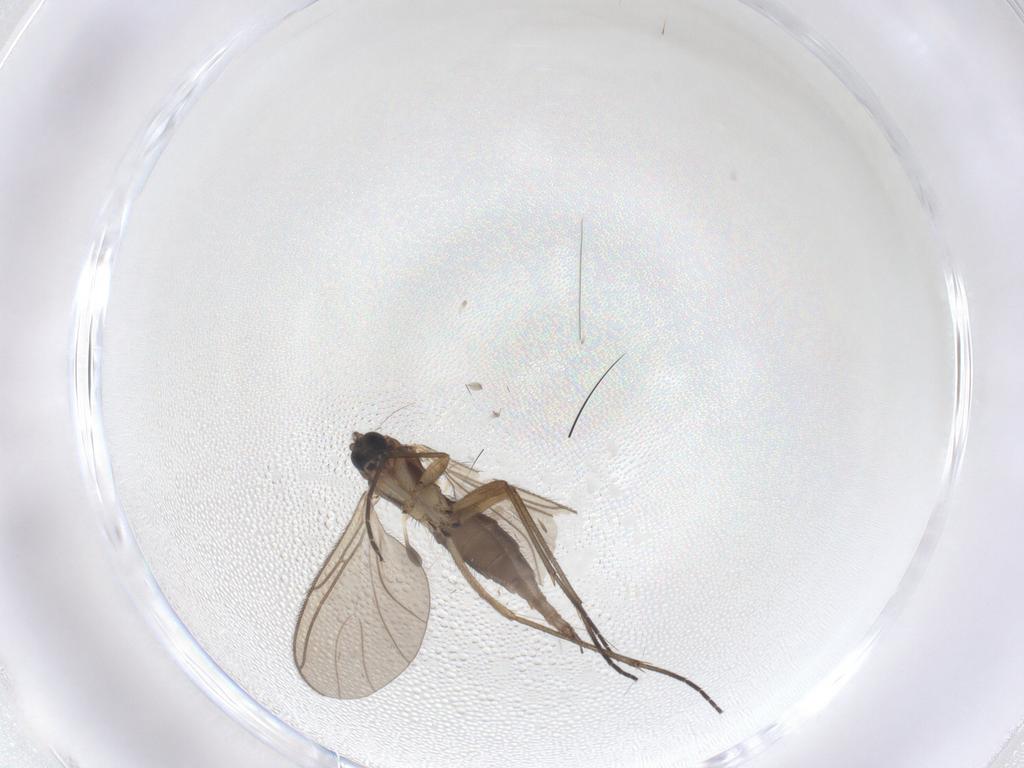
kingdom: Animalia
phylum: Arthropoda
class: Insecta
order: Diptera
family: Sciaridae
